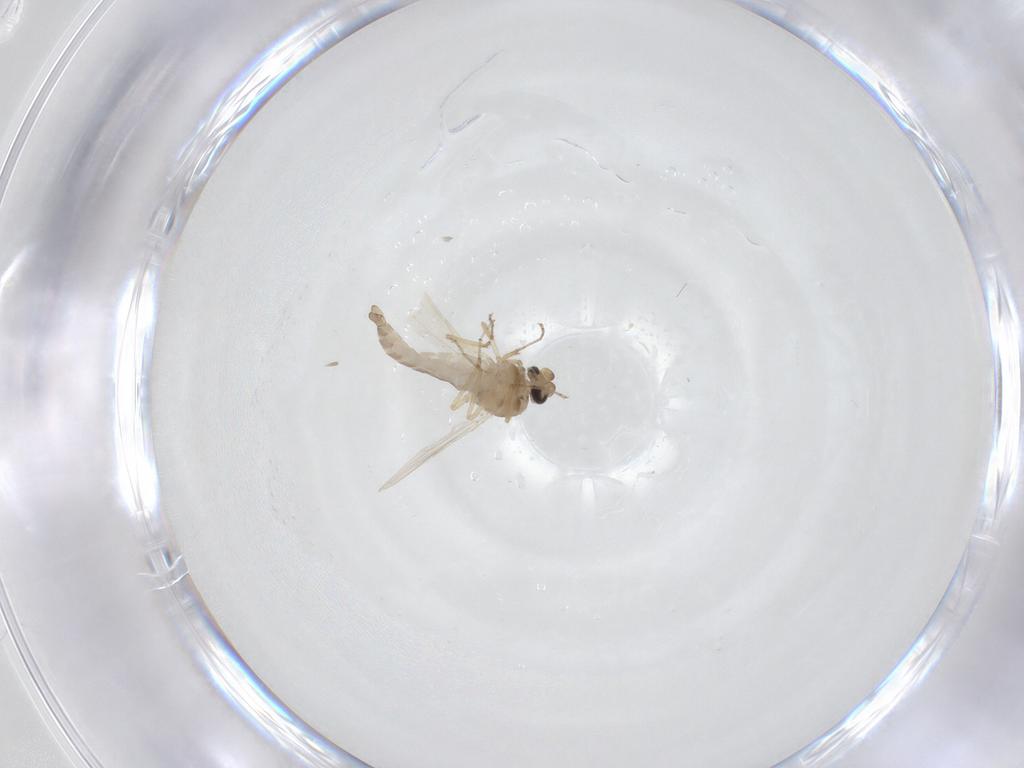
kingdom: Animalia
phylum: Arthropoda
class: Insecta
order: Diptera
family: Ceratopogonidae
